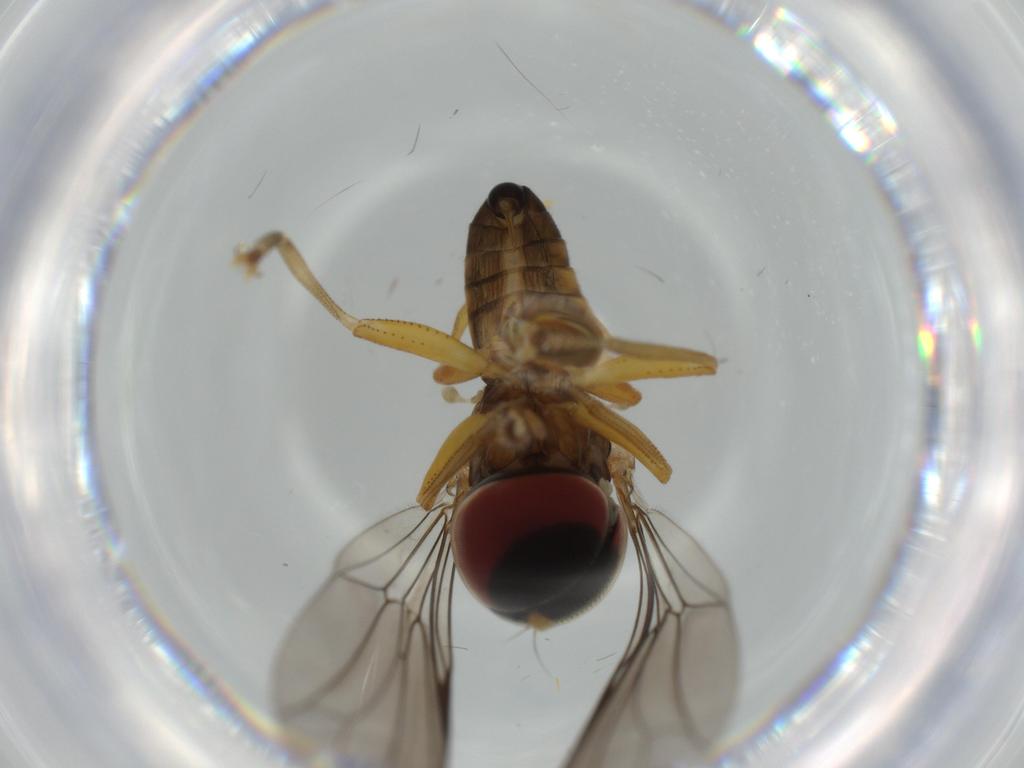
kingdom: Animalia
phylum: Arthropoda
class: Insecta
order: Diptera
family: Pipunculidae
